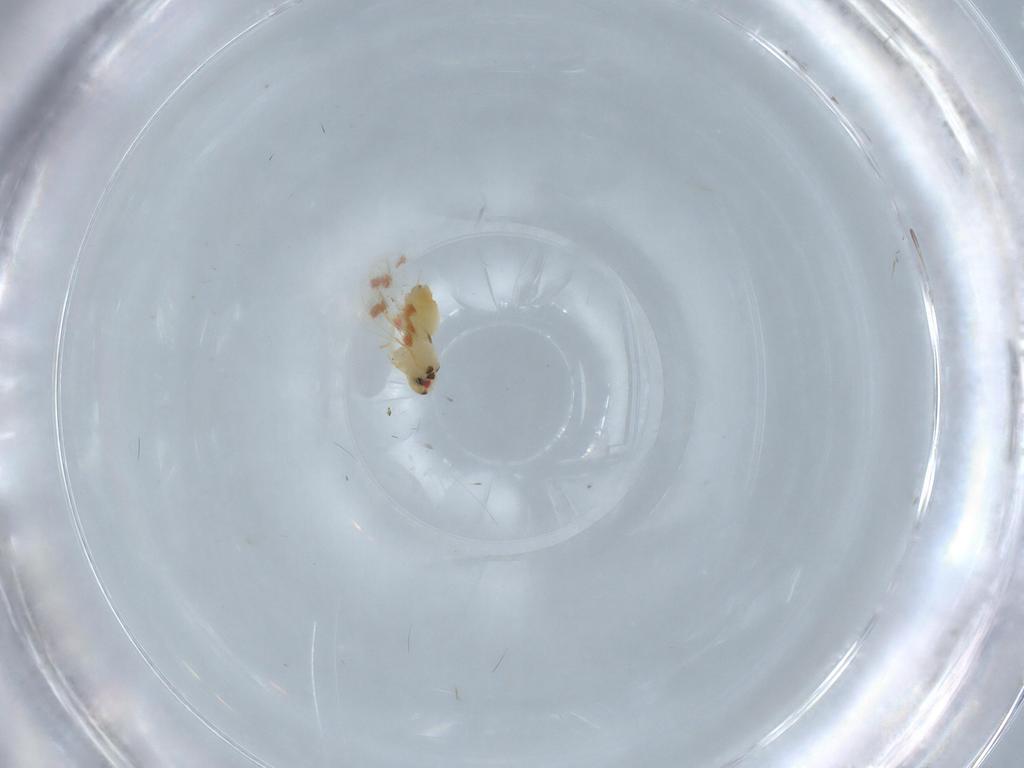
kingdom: Animalia
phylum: Arthropoda
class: Insecta
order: Hemiptera
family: Aleyrodidae
